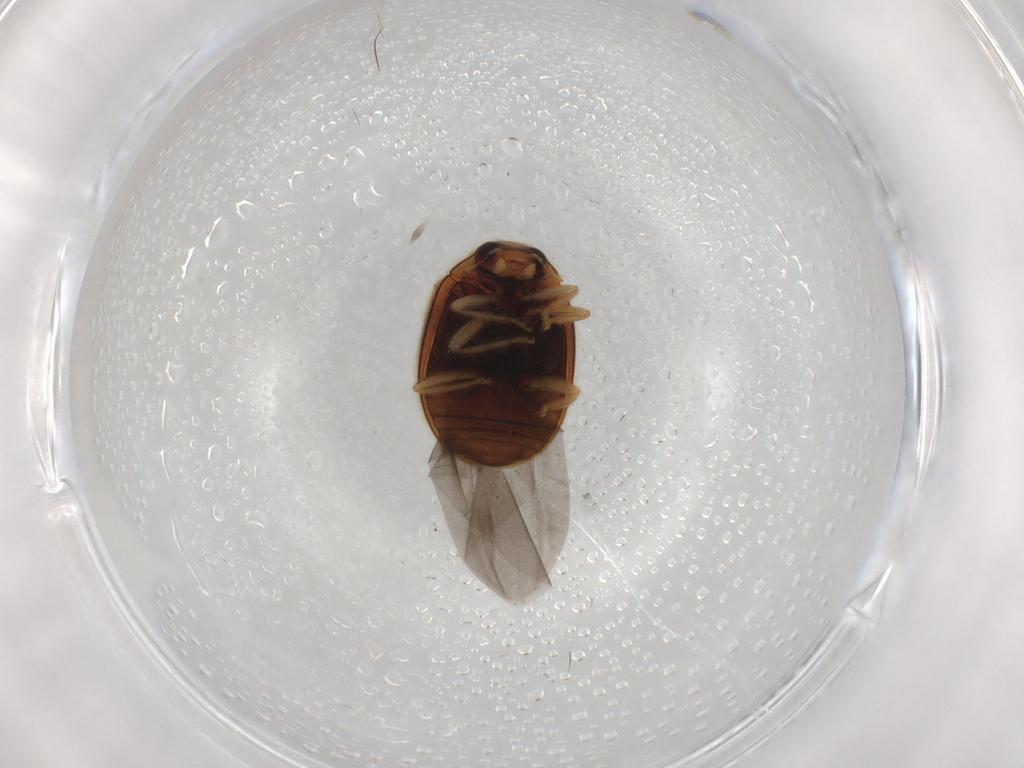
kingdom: Animalia
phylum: Arthropoda
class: Insecta
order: Coleoptera
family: Coccinellidae
